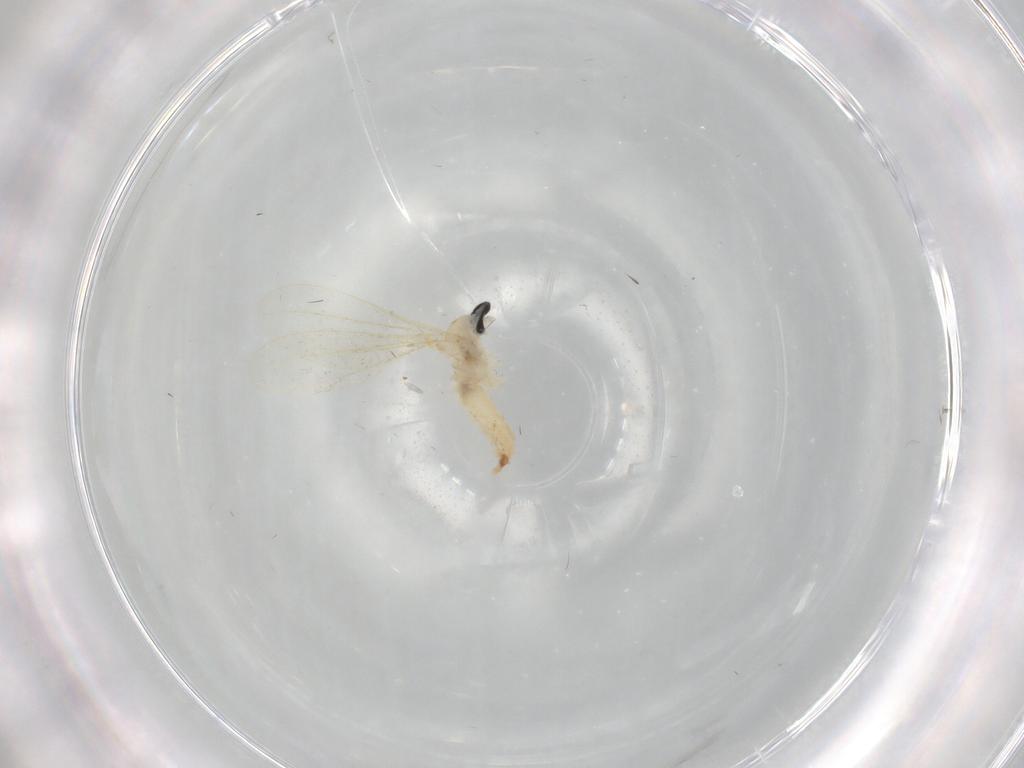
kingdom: Animalia
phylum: Arthropoda
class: Insecta
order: Diptera
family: Cecidomyiidae
